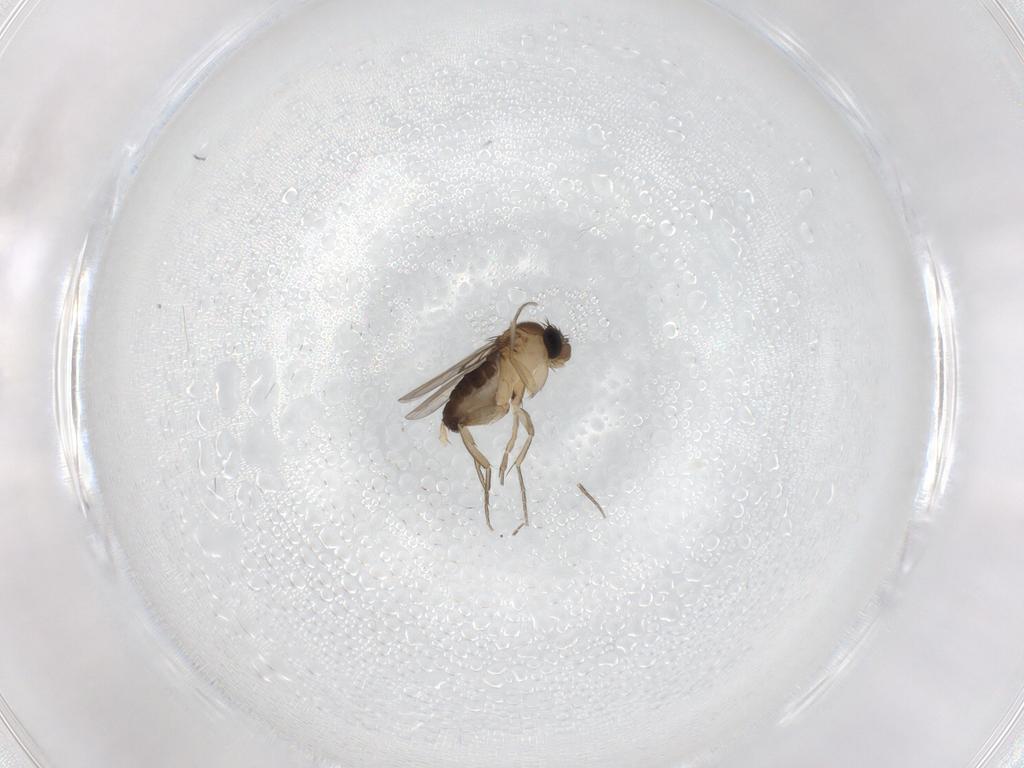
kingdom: Animalia
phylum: Arthropoda
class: Insecta
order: Diptera
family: Phoridae
